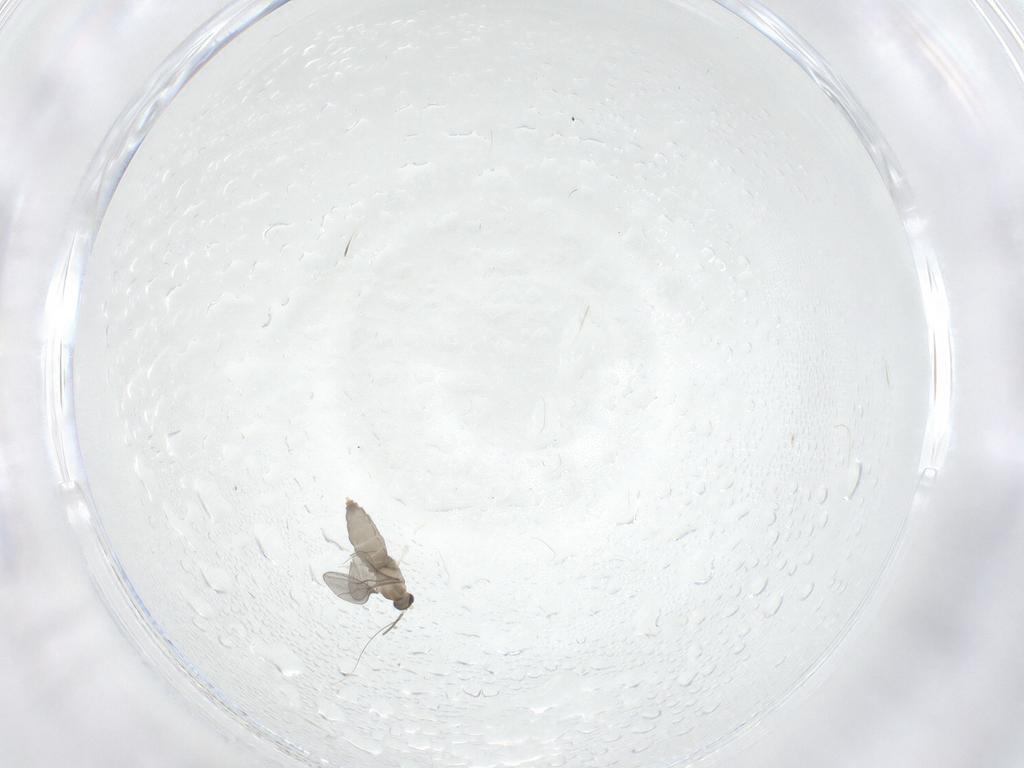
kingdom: Animalia
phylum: Arthropoda
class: Insecta
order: Diptera
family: Cecidomyiidae
